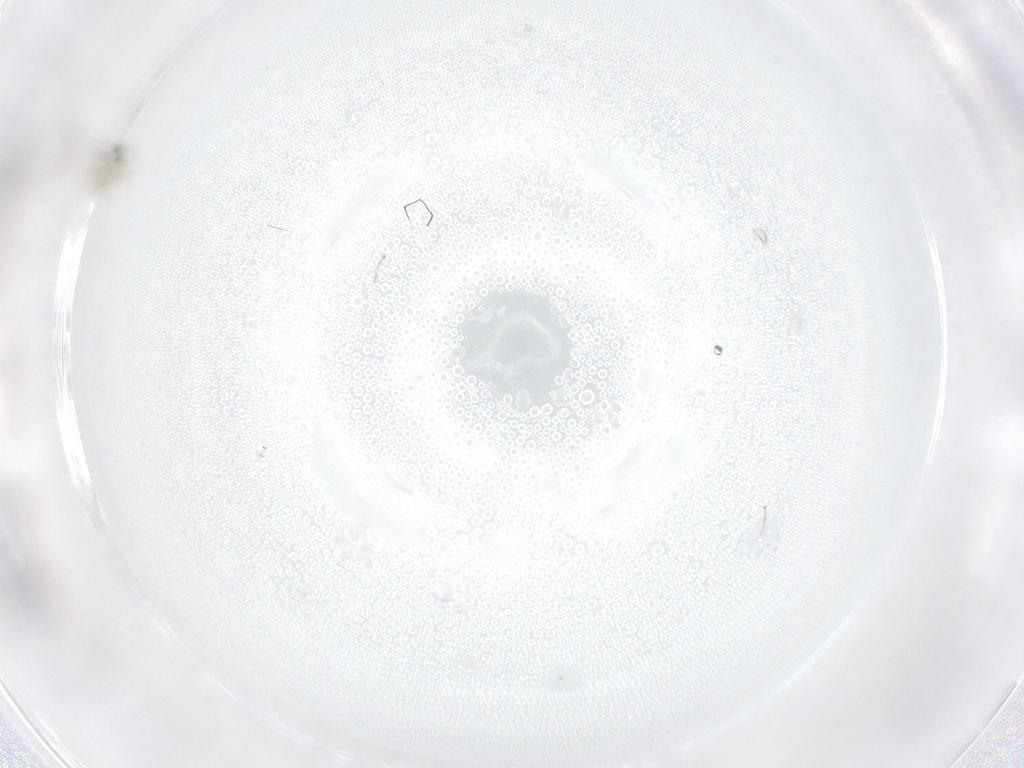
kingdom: Animalia
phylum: Arthropoda
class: Insecta
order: Diptera
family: Cecidomyiidae
